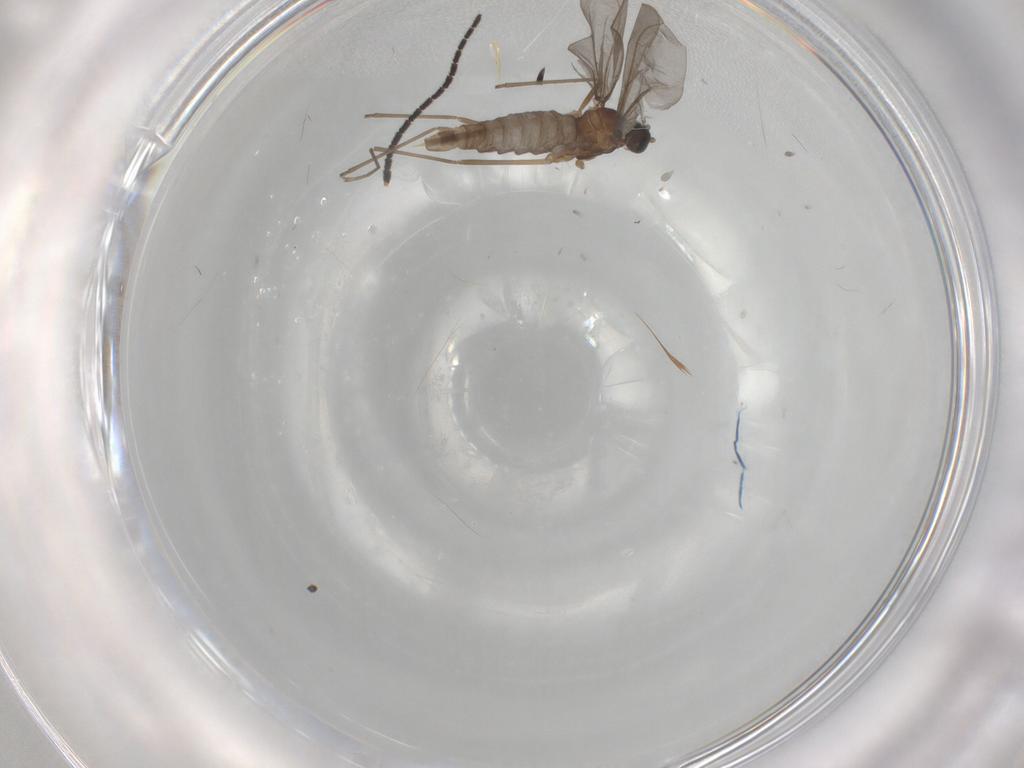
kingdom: Animalia
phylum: Arthropoda
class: Insecta
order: Diptera
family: Cecidomyiidae
